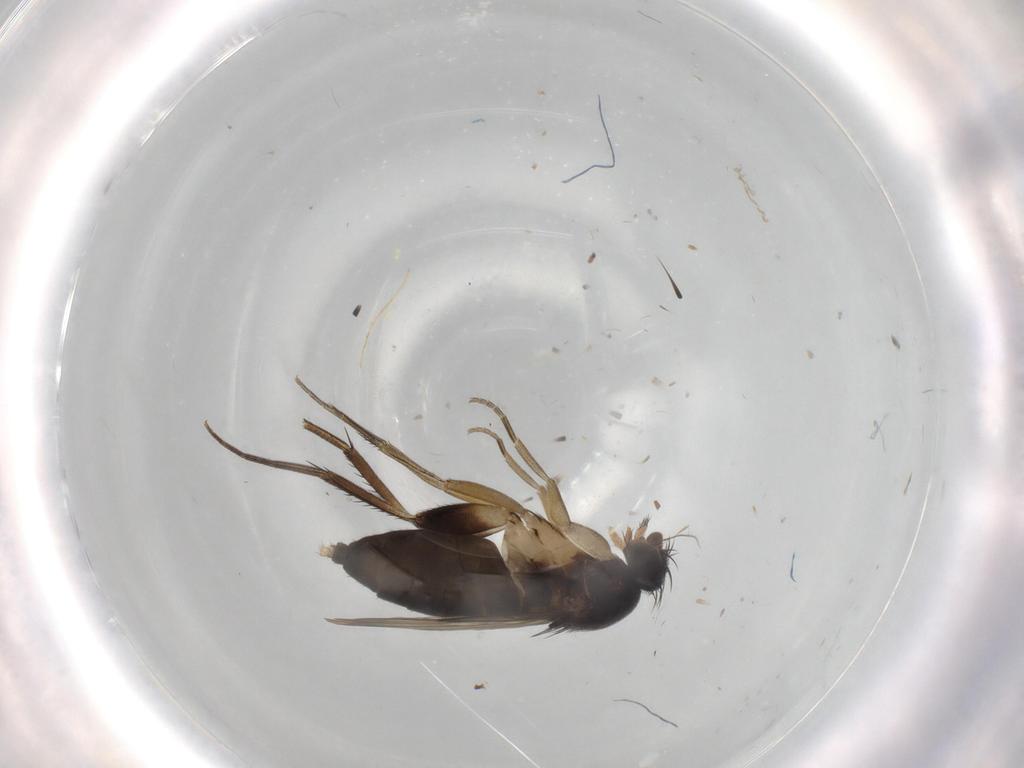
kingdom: Animalia
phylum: Arthropoda
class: Insecta
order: Diptera
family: Phoridae
